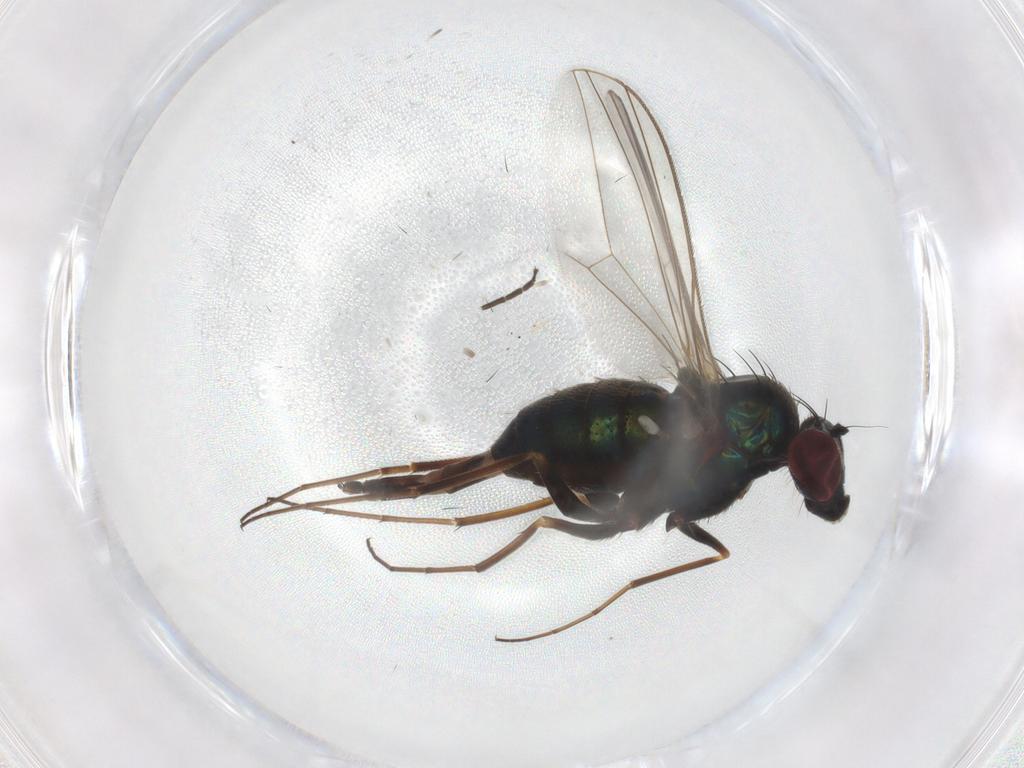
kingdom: Animalia
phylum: Arthropoda
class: Insecta
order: Diptera
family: Dolichopodidae
